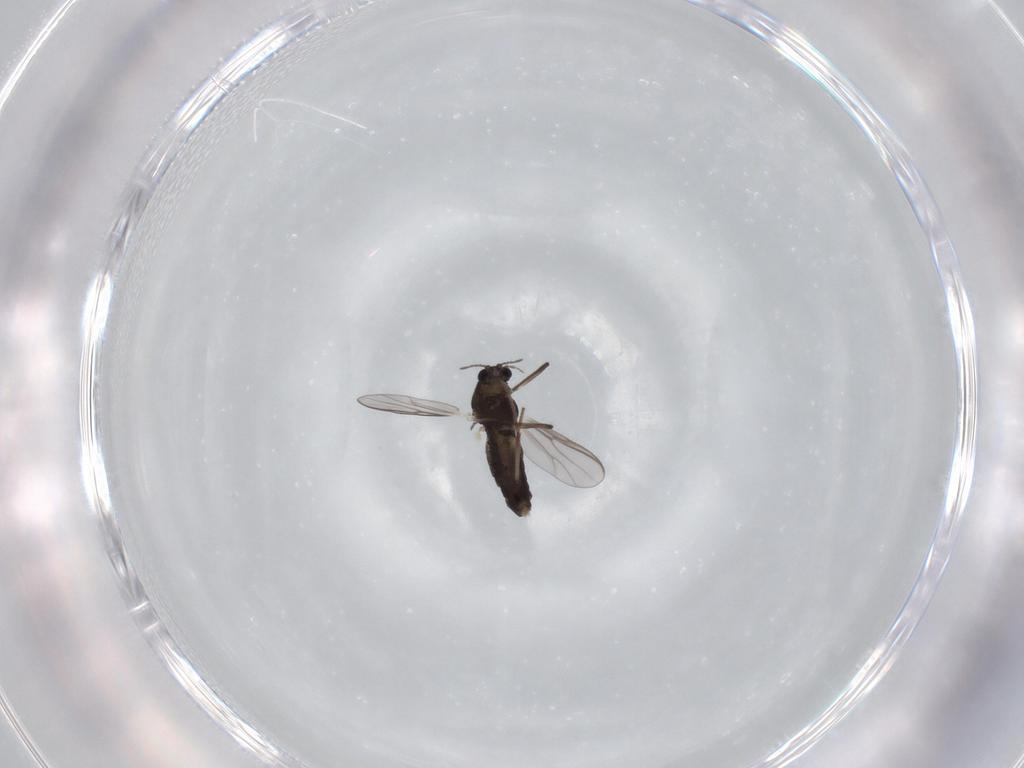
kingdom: Animalia
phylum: Arthropoda
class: Insecta
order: Diptera
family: Chironomidae
